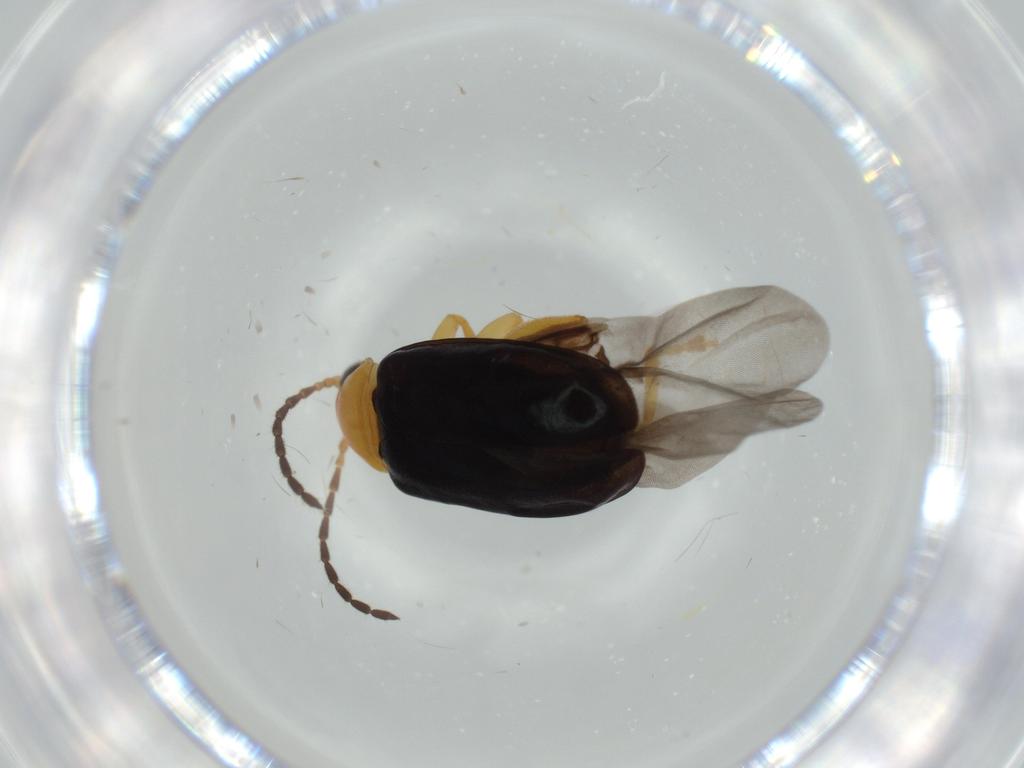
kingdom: Animalia
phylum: Arthropoda
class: Insecta
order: Coleoptera
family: Chrysomelidae
